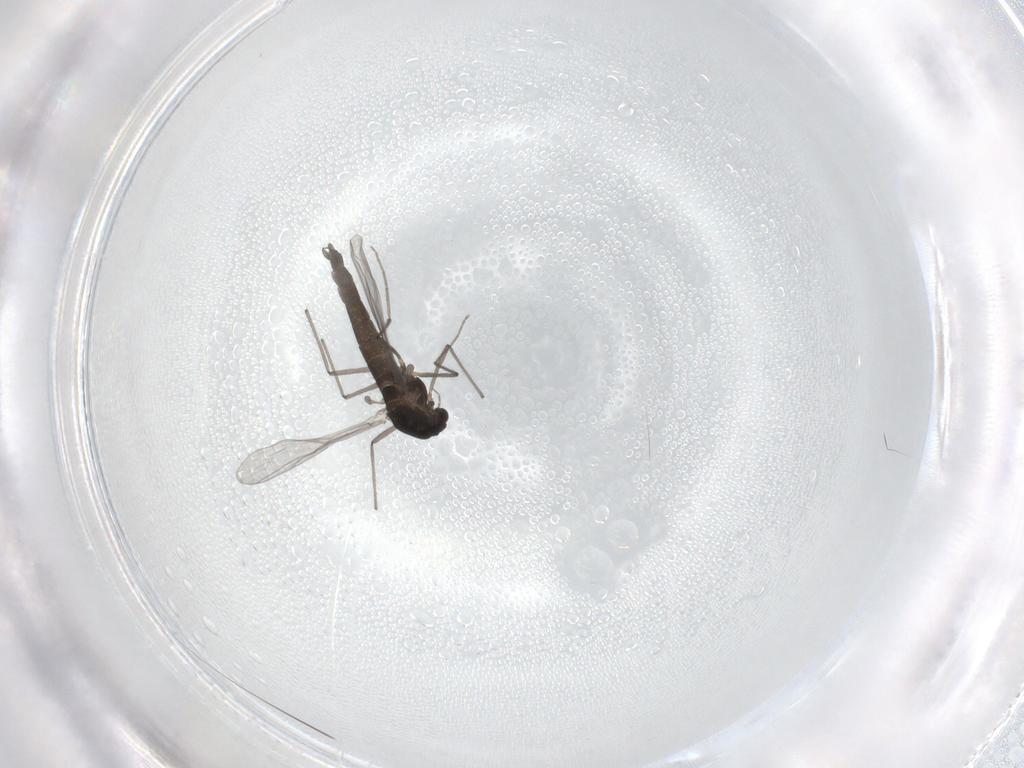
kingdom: Animalia
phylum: Arthropoda
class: Insecta
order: Diptera
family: Chironomidae
